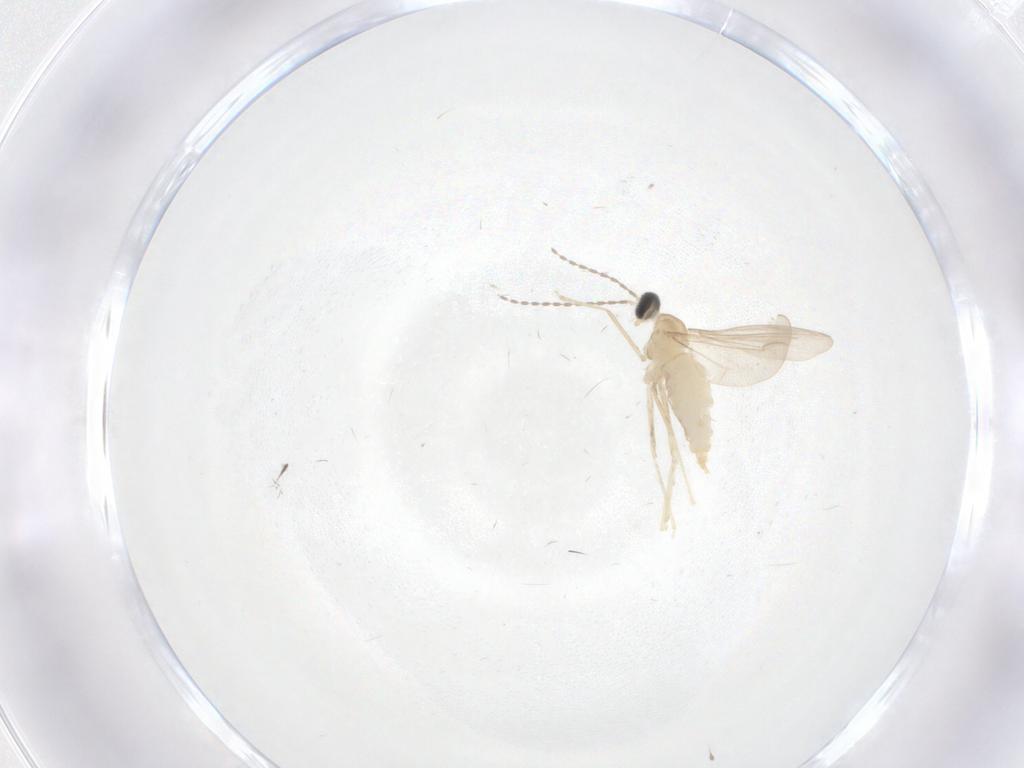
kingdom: Animalia
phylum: Arthropoda
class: Insecta
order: Diptera
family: Cecidomyiidae
